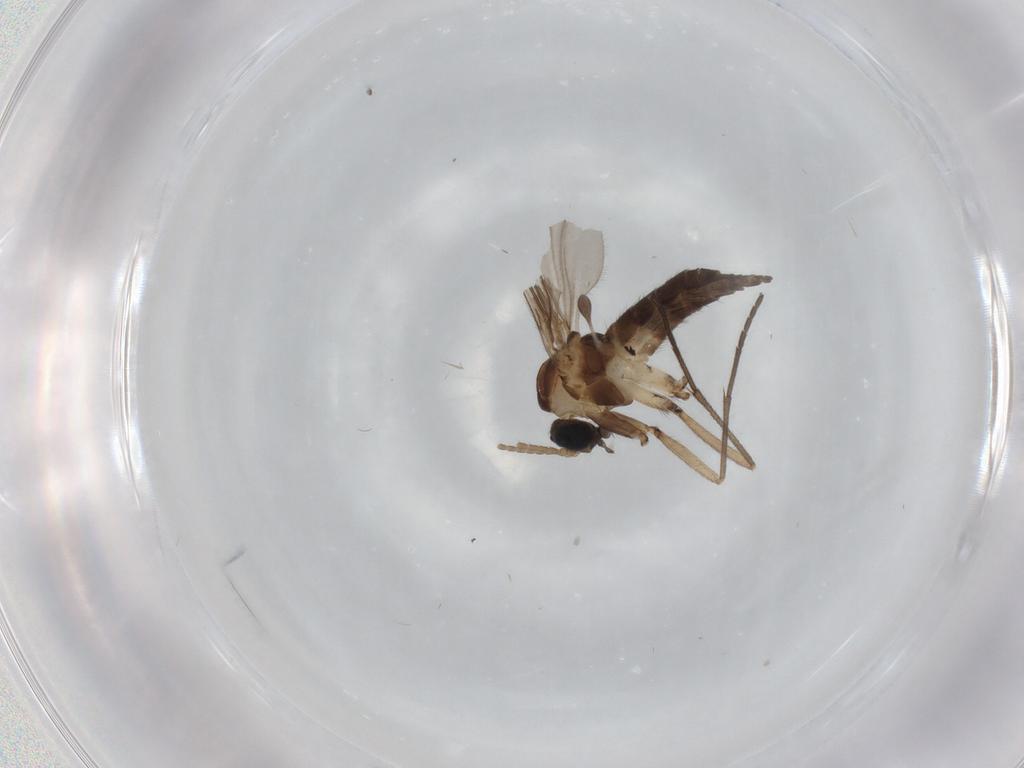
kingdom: Animalia
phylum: Arthropoda
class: Insecta
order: Diptera
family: Sciaridae
